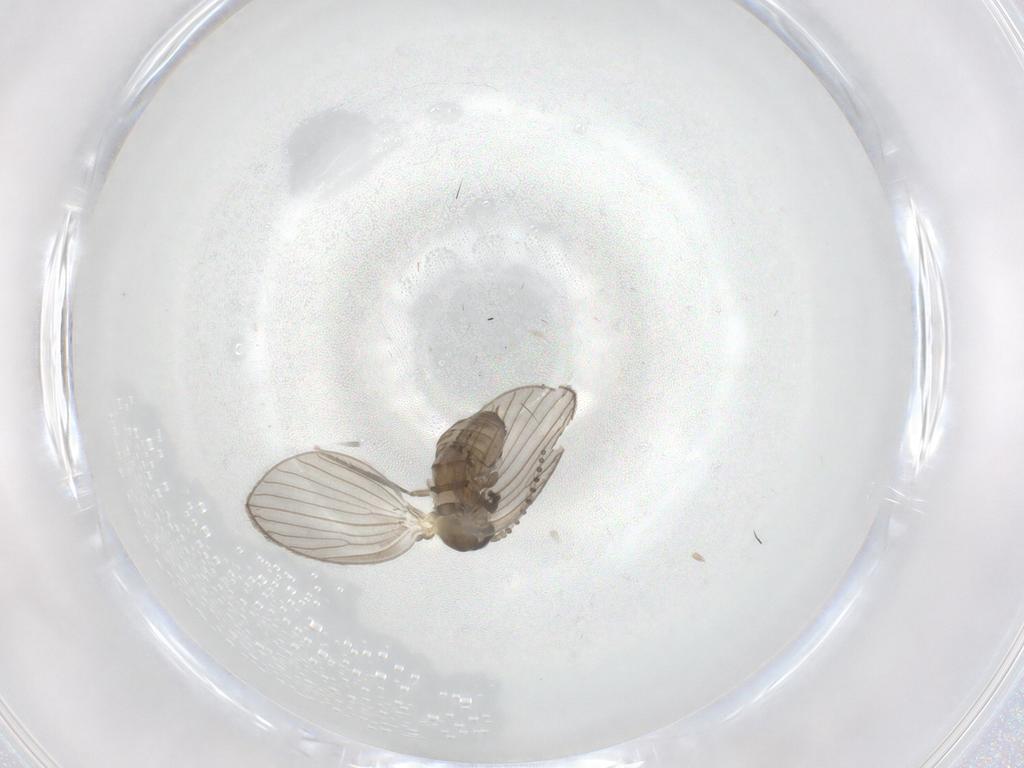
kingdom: Animalia
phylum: Arthropoda
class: Insecta
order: Diptera
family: Psychodidae
